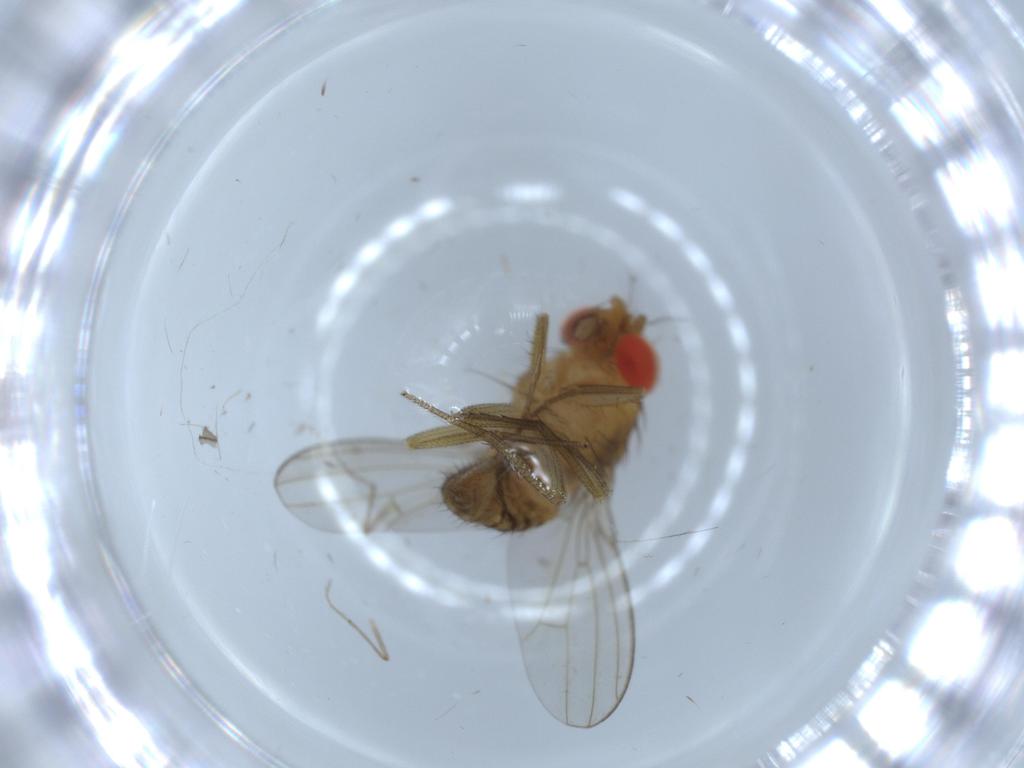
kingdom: Animalia
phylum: Arthropoda
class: Insecta
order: Diptera
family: Drosophilidae
